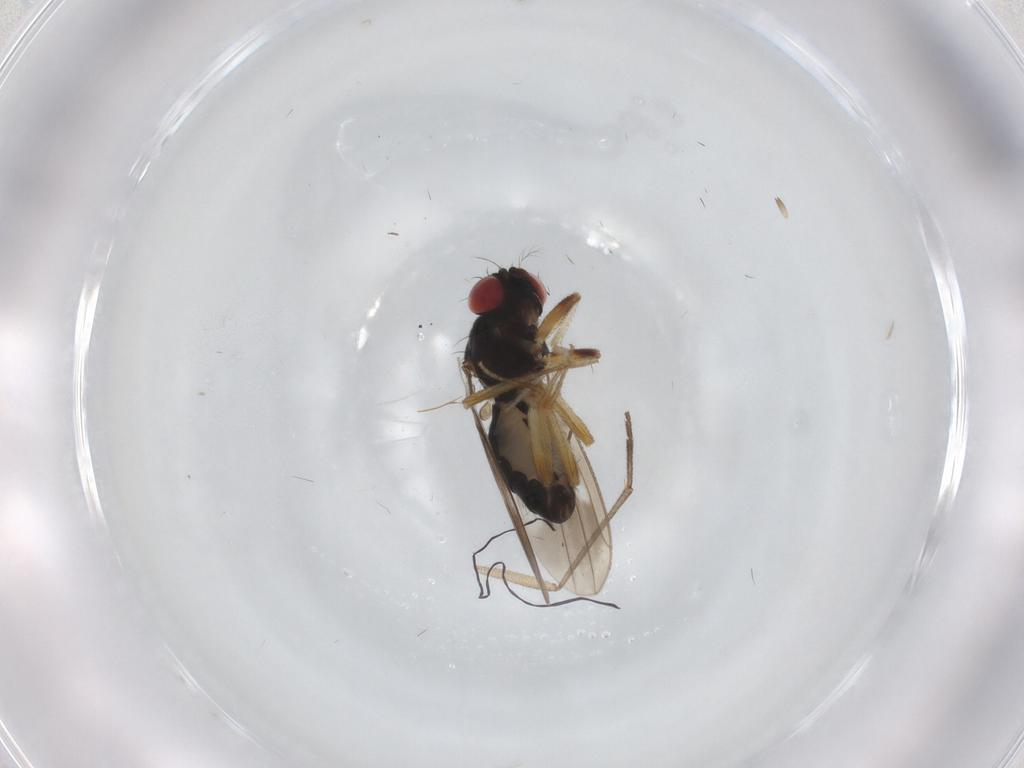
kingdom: Animalia
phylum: Arthropoda
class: Insecta
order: Diptera
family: Drosophilidae
